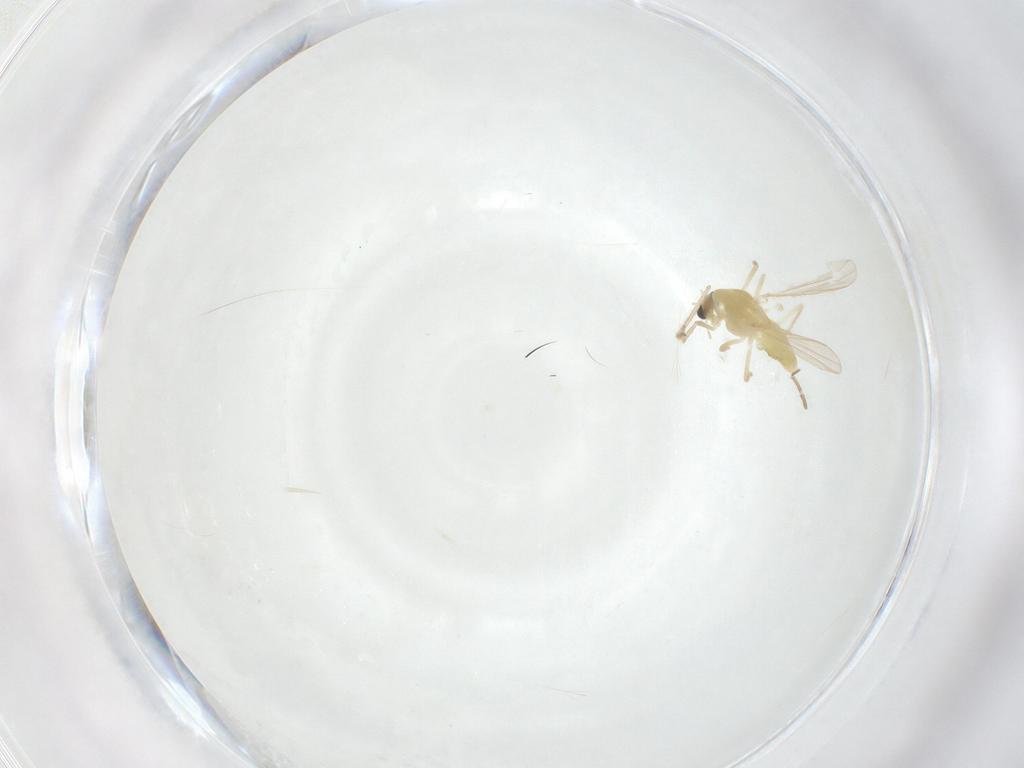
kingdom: Animalia
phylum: Arthropoda
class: Insecta
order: Diptera
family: Chironomidae
